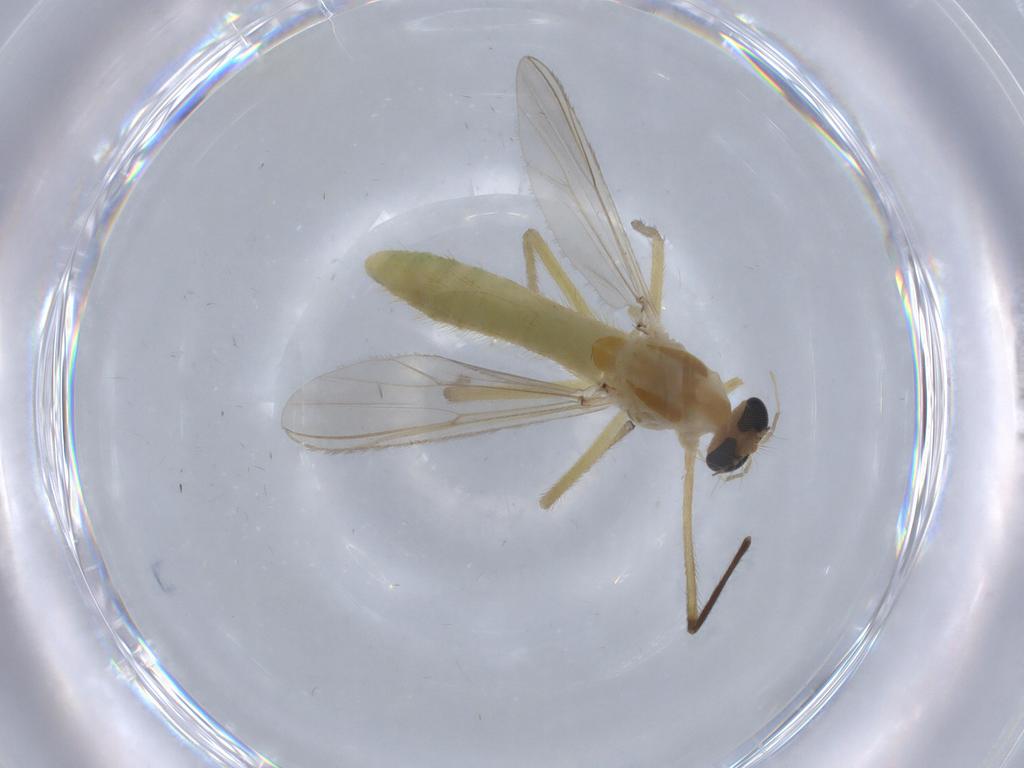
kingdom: Animalia
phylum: Arthropoda
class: Insecta
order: Diptera
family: Chironomidae
